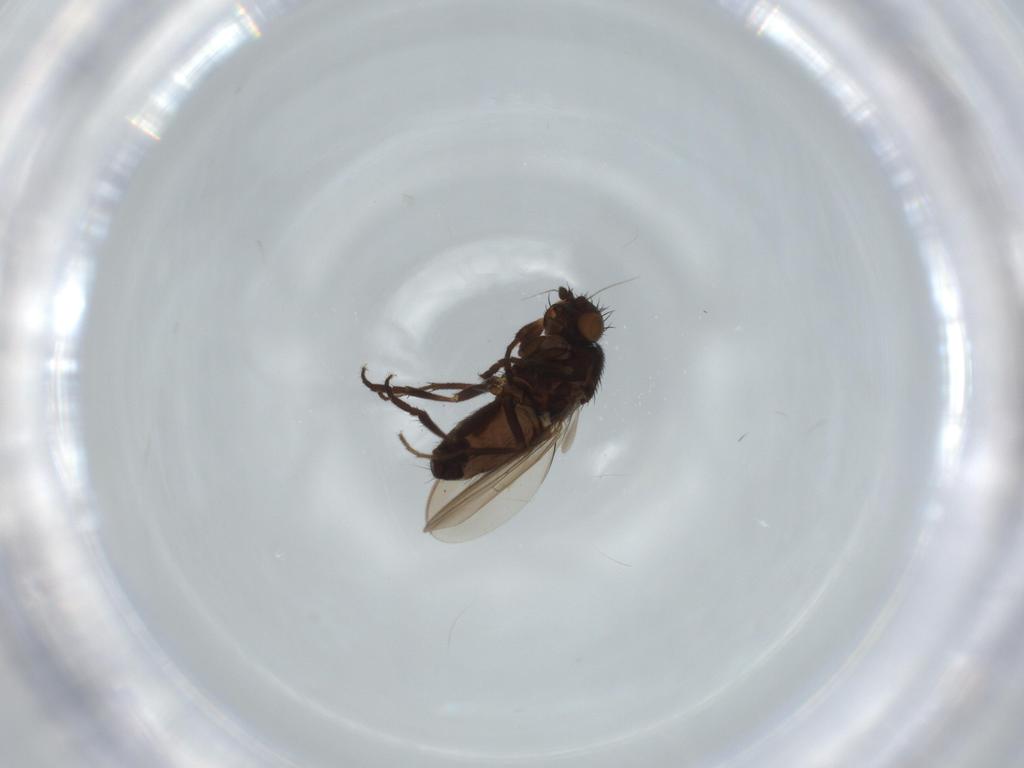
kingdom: Animalia
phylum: Arthropoda
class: Insecta
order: Diptera
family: Sphaeroceridae
